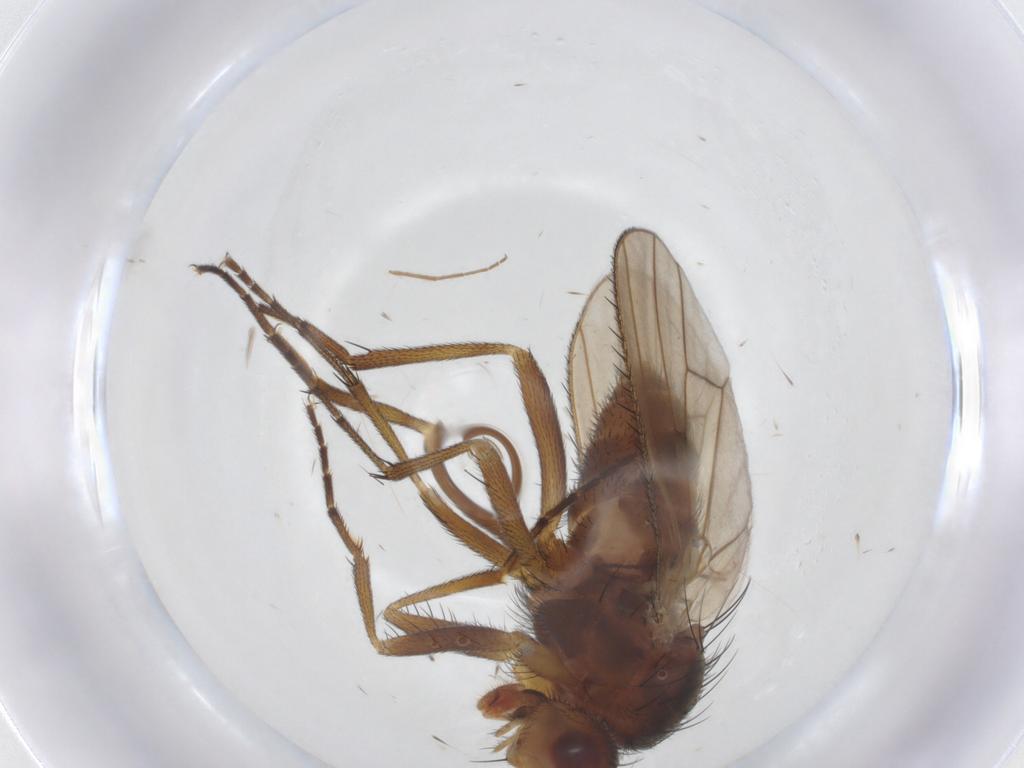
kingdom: Animalia
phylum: Arthropoda
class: Insecta
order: Diptera
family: Heleomyzidae
